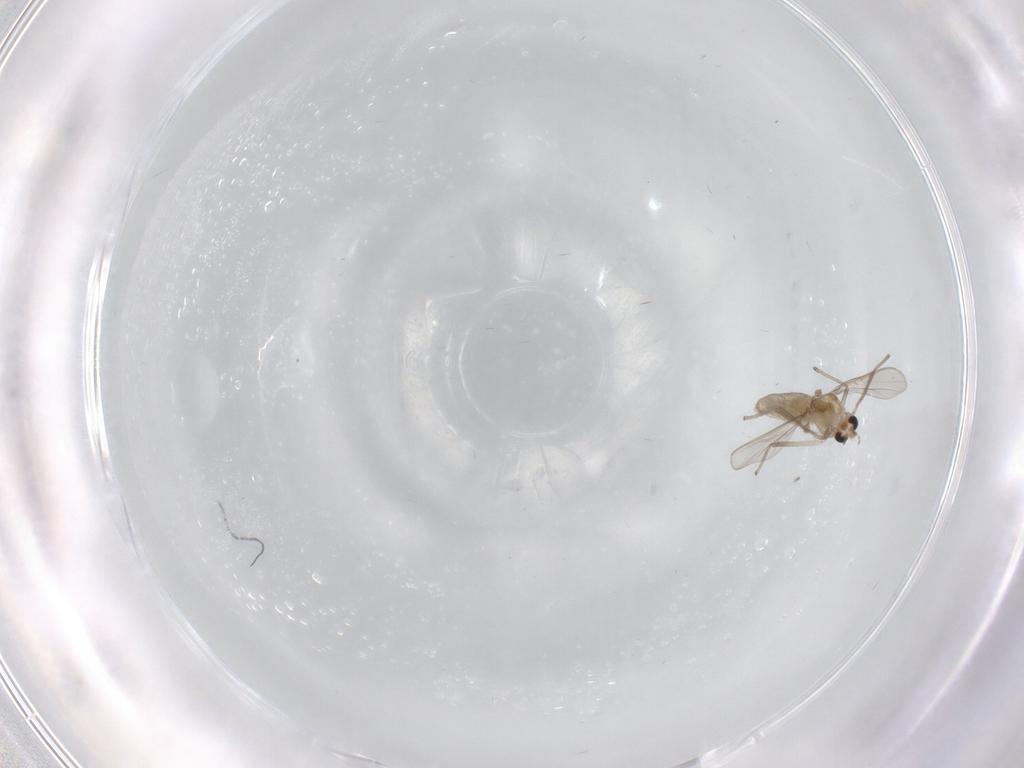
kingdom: Animalia
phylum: Arthropoda
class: Insecta
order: Diptera
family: Chironomidae
